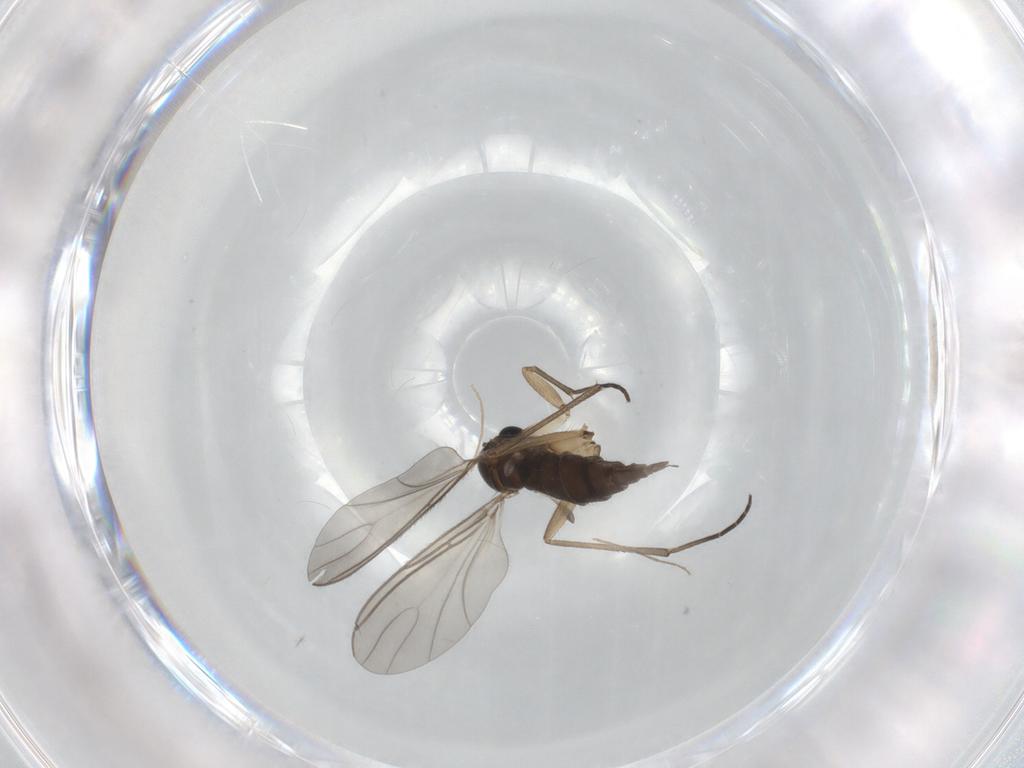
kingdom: Animalia
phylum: Arthropoda
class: Insecta
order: Diptera
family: Sciaridae
